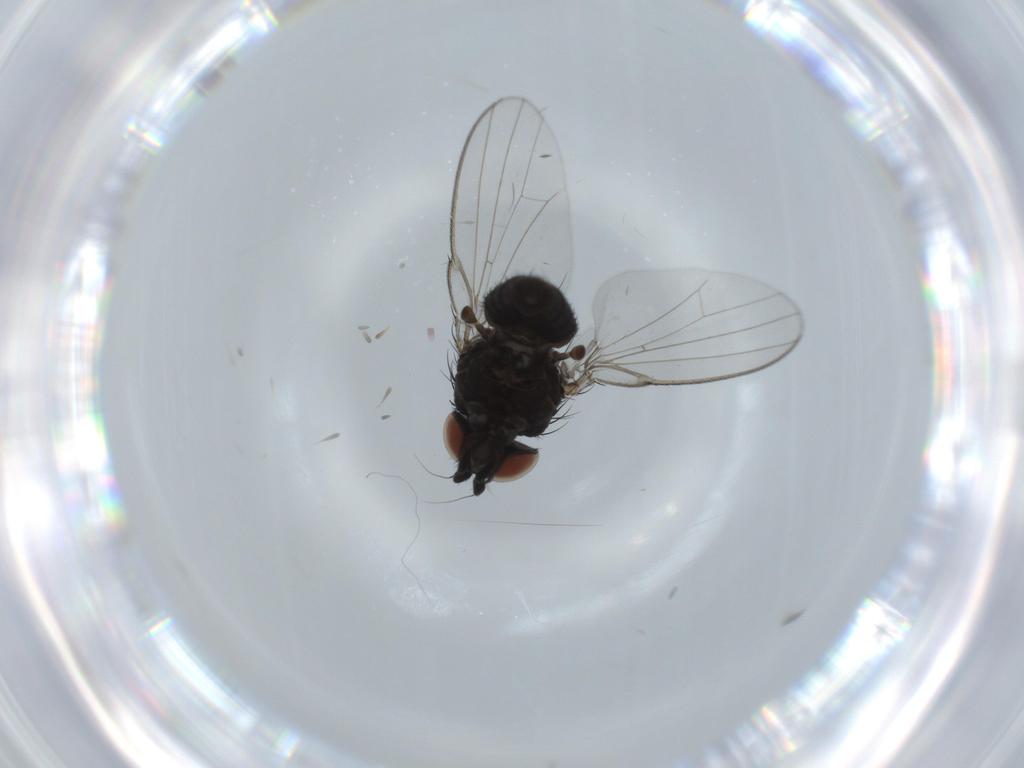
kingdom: Animalia
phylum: Arthropoda
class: Insecta
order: Diptera
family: Milichiidae
